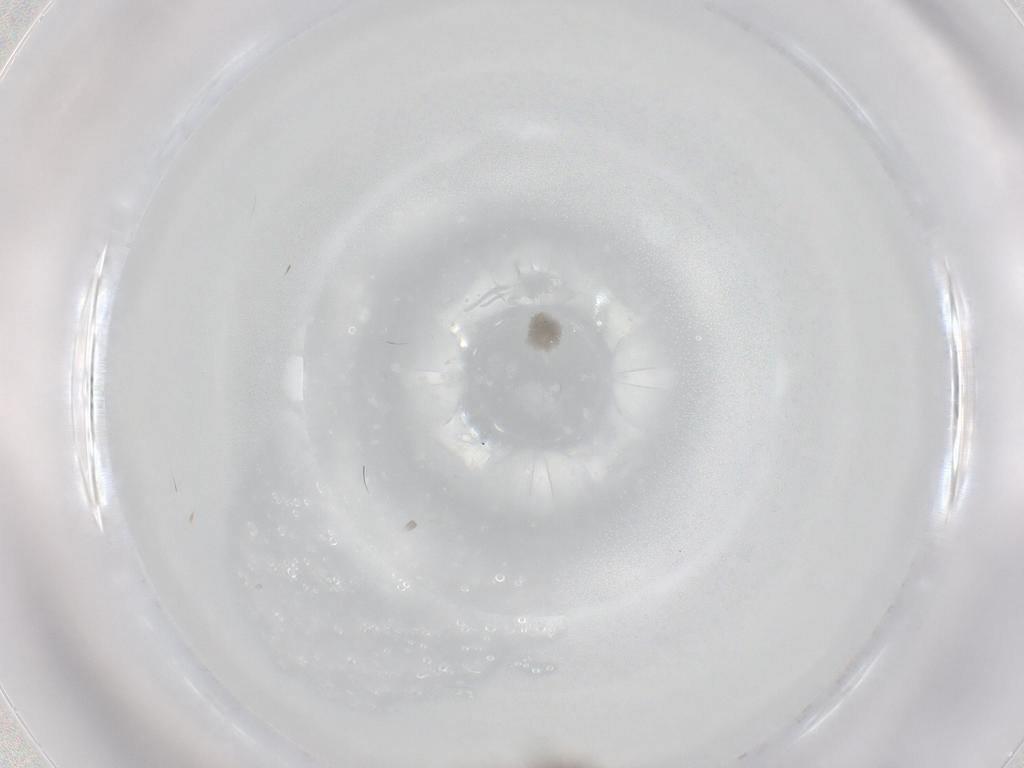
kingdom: Animalia
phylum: Arthropoda
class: Insecta
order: Diptera
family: Chironomidae
